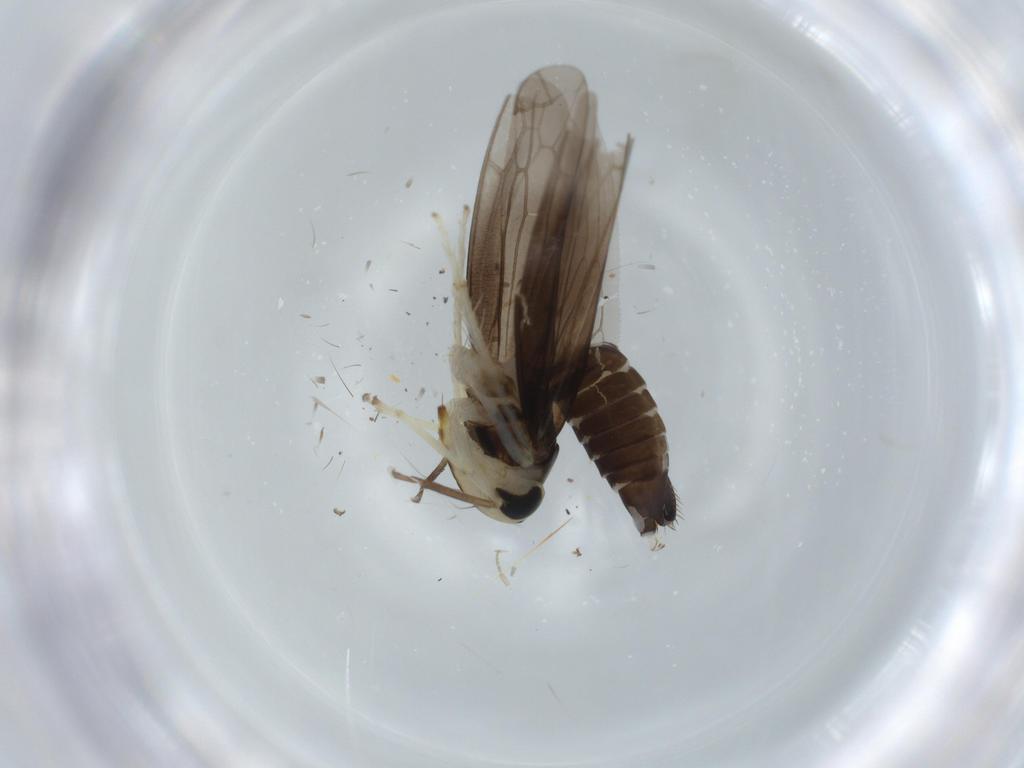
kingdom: Animalia
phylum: Arthropoda
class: Insecta
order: Hemiptera
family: Cicadellidae
